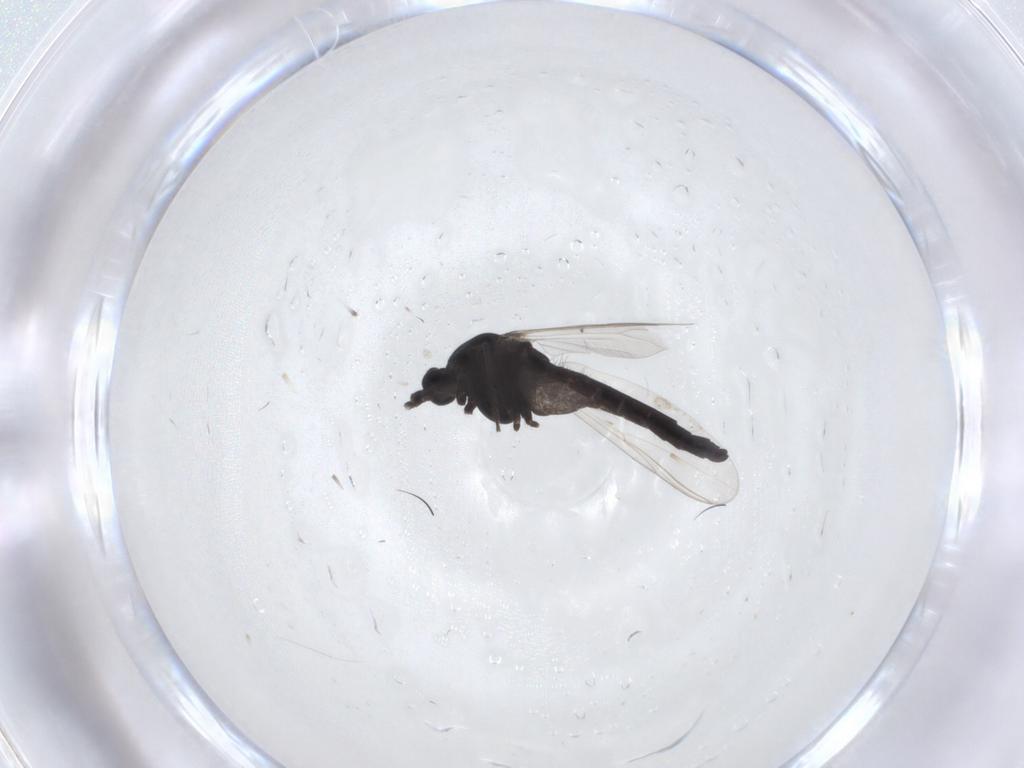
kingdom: Animalia
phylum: Arthropoda
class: Insecta
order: Diptera
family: Chironomidae
